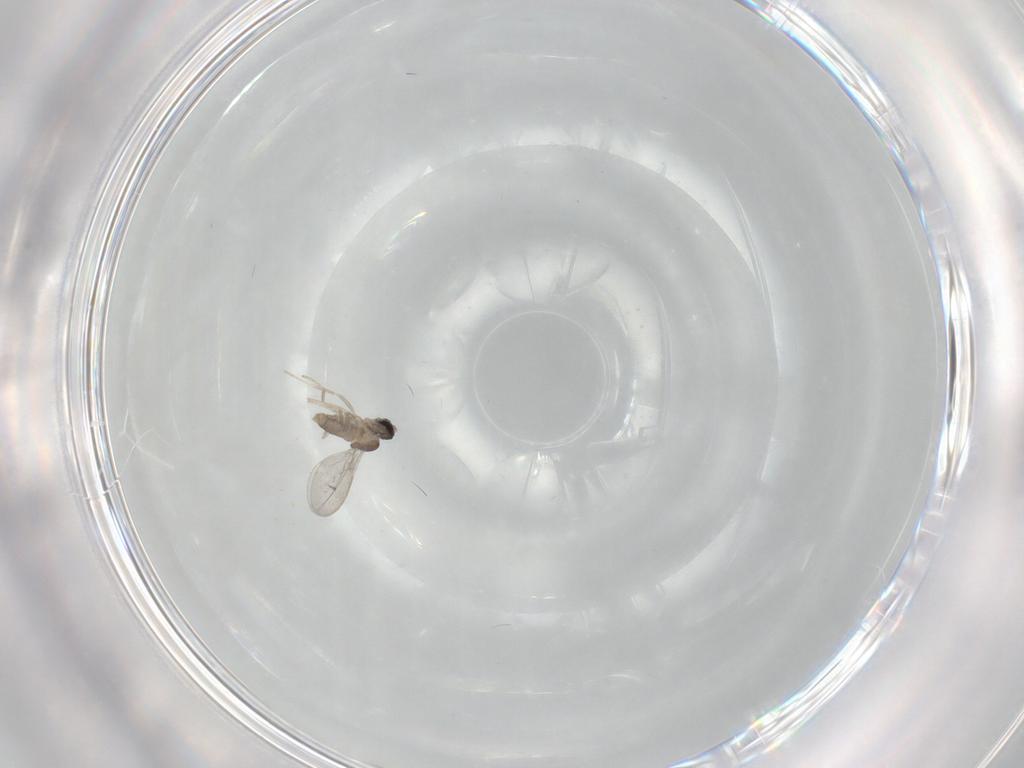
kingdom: Animalia
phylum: Arthropoda
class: Insecta
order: Diptera
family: Cecidomyiidae
